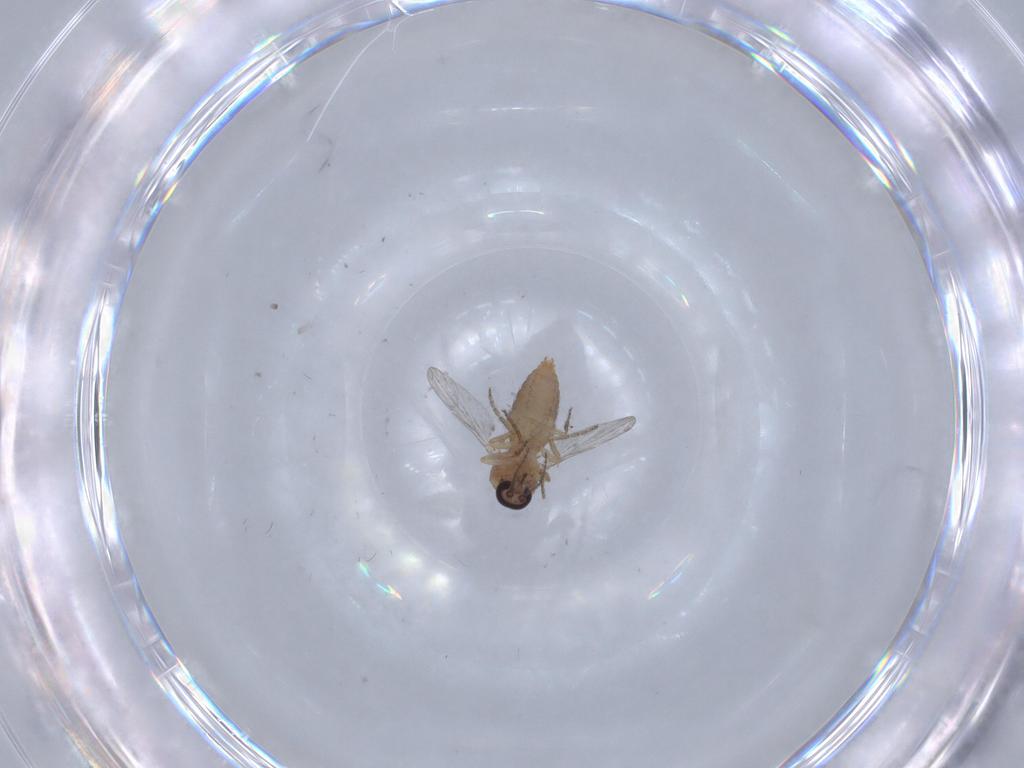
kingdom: Animalia
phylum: Arthropoda
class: Insecta
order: Diptera
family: Ceratopogonidae
